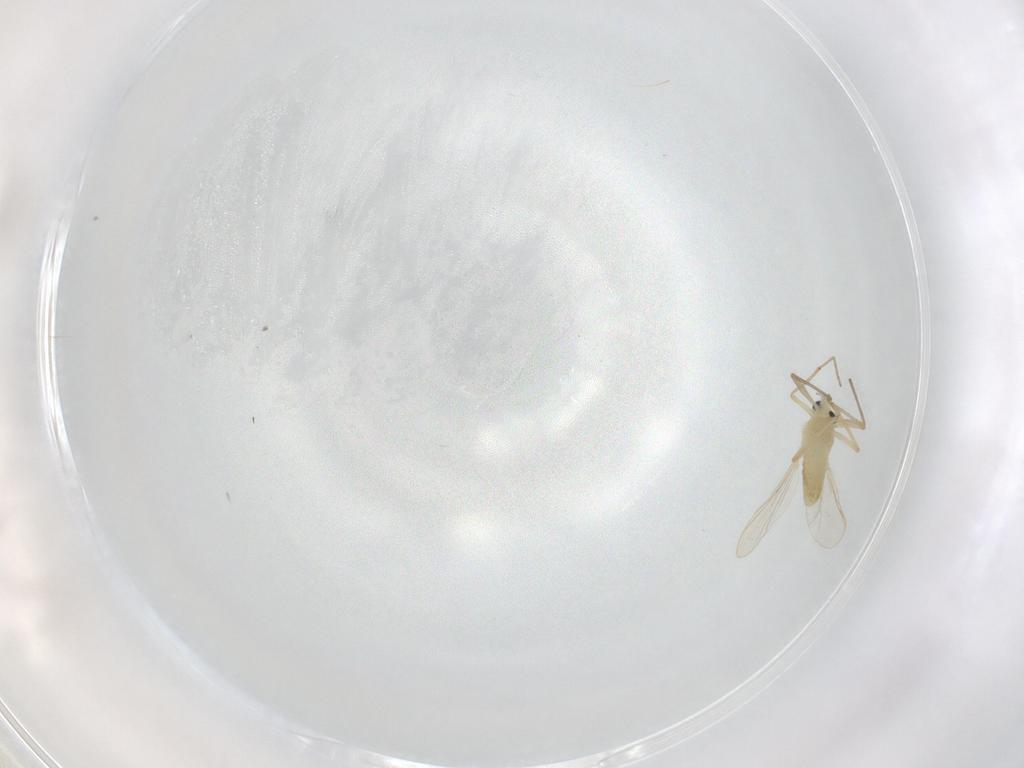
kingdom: Animalia
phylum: Arthropoda
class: Insecta
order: Diptera
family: Chironomidae
